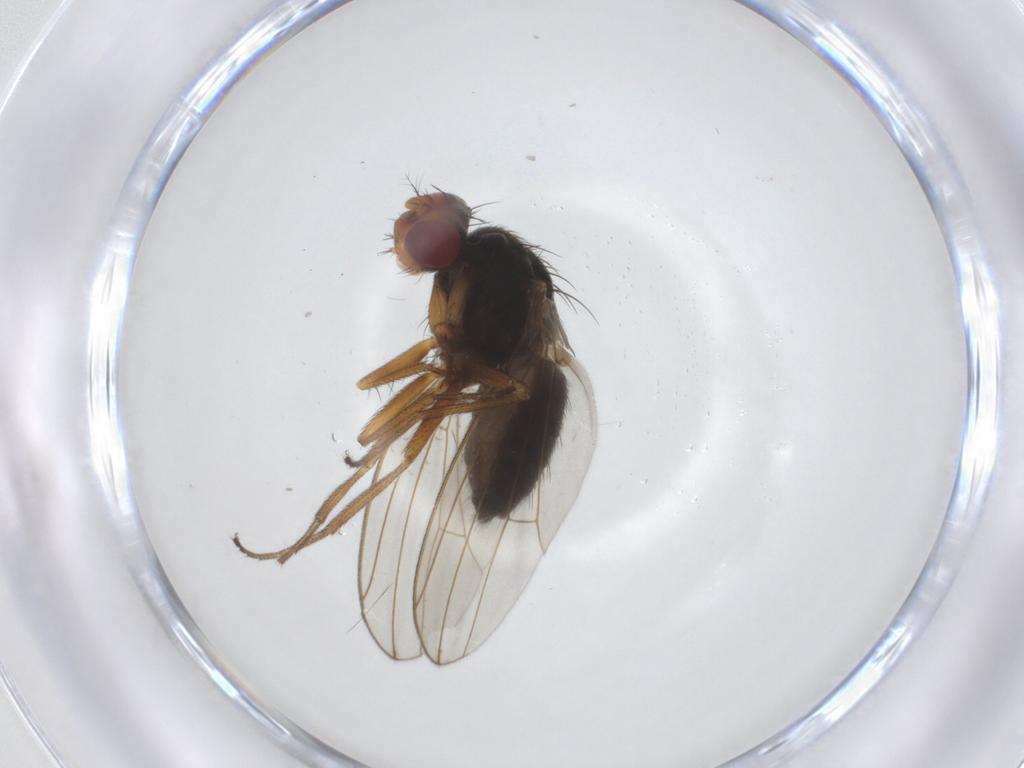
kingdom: Animalia
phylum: Arthropoda
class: Insecta
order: Diptera
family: Drosophilidae
